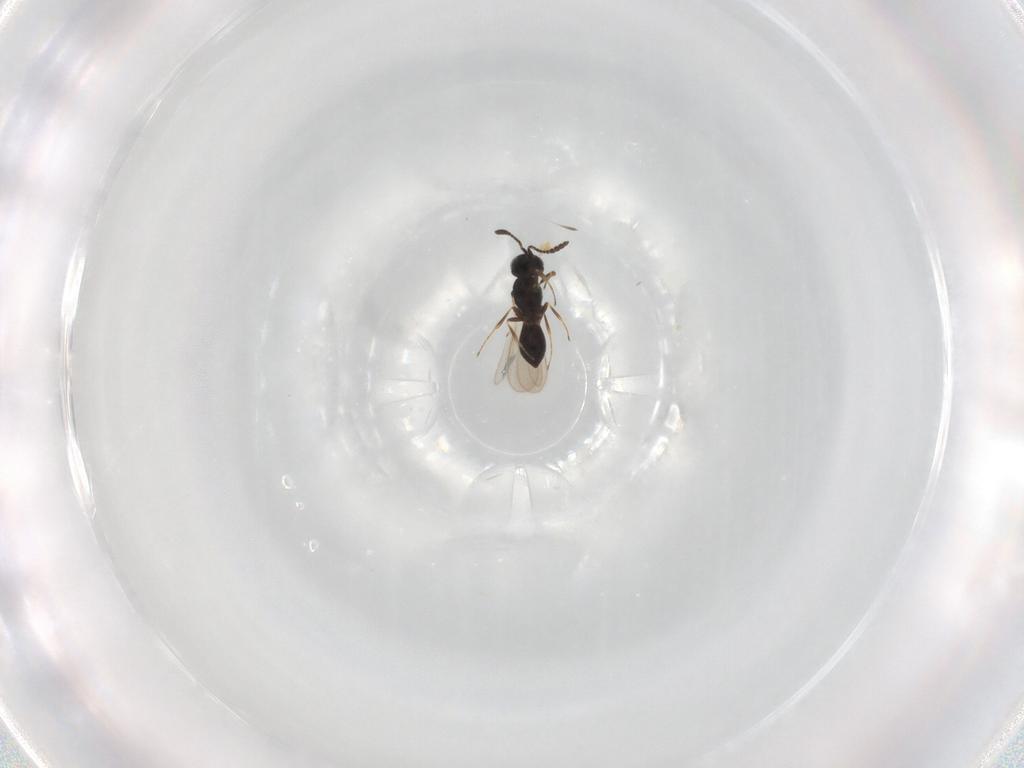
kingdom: Animalia
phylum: Arthropoda
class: Insecta
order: Hymenoptera
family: Scelionidae
